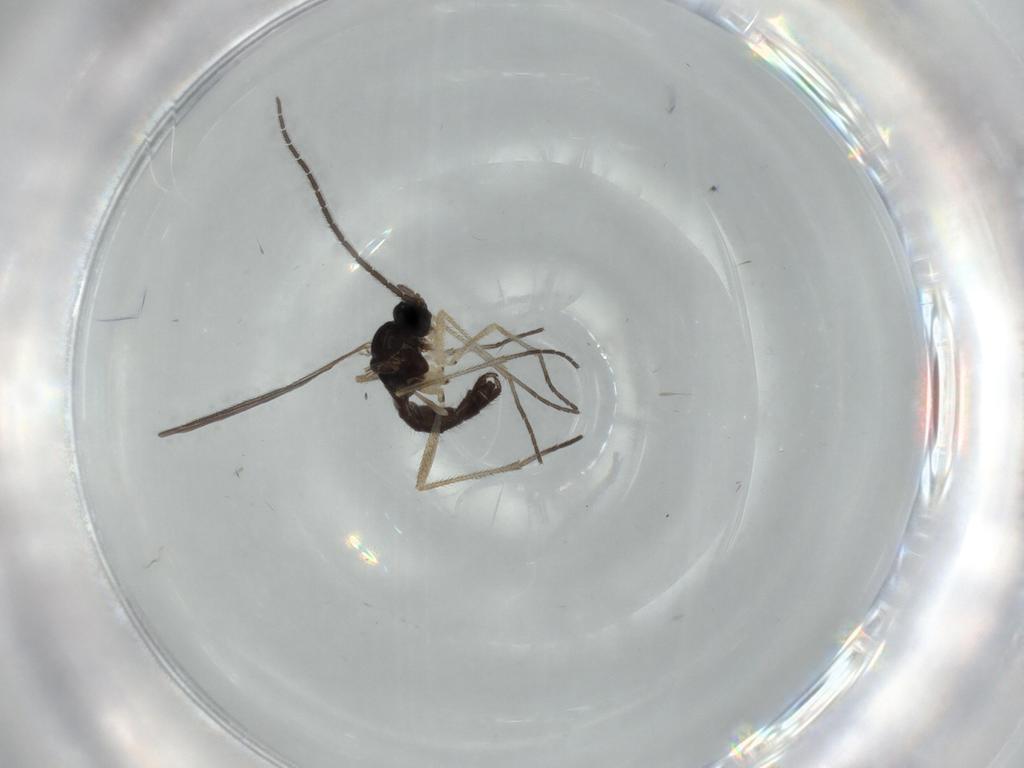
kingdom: Animalia
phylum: Arthropoda
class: Insecta
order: Diptera
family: Sciaridae
